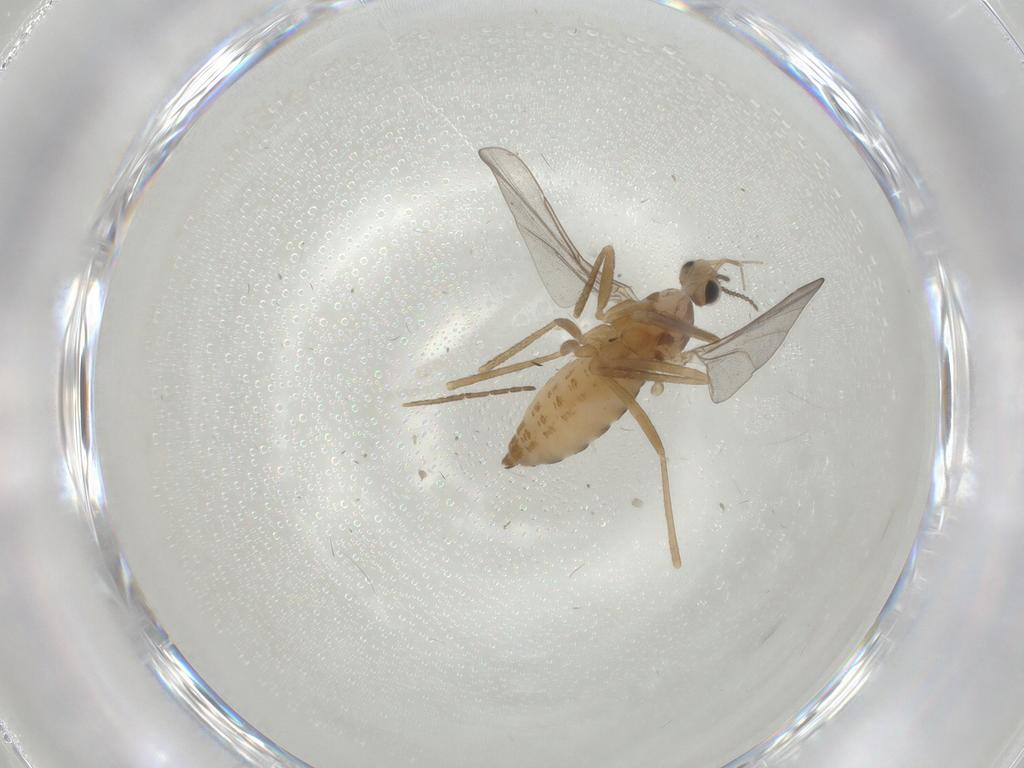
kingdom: Animalia
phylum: Arthropoda
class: Insecta
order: Diptera
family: Cecidomyiidae
